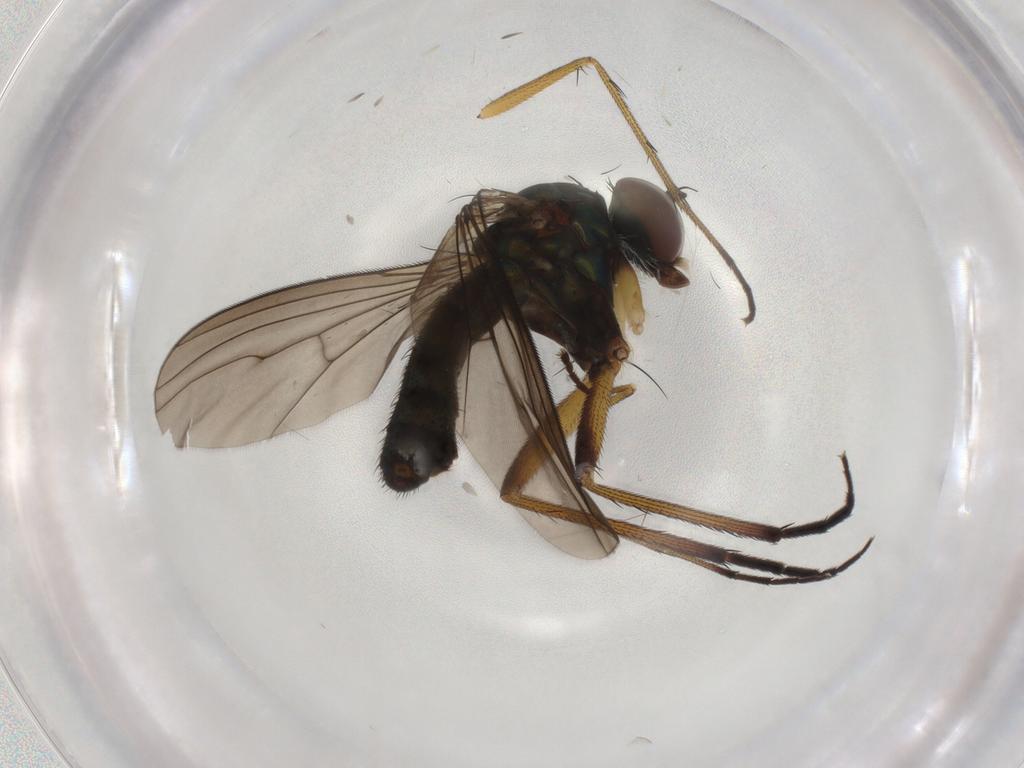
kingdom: Animalia
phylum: Arthropoda
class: Insecta
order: Diptera
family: Dolichopodidae
